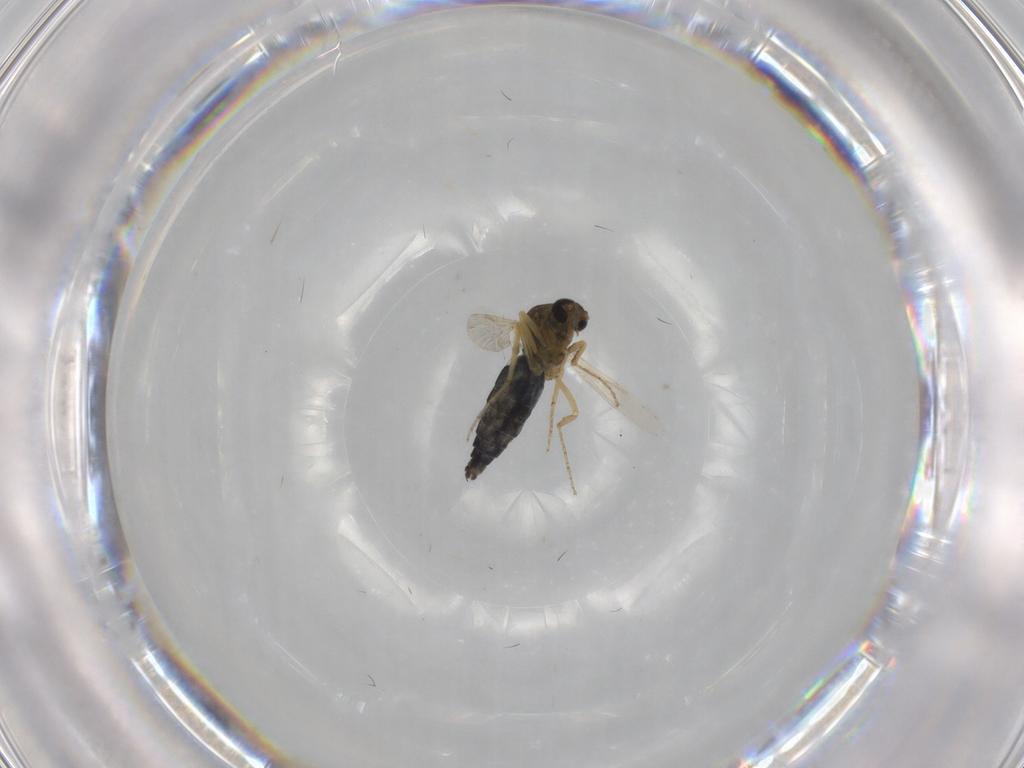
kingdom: Animalia
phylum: Arthropoda
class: Insecta
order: Diptera
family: Ceratopogonidae
